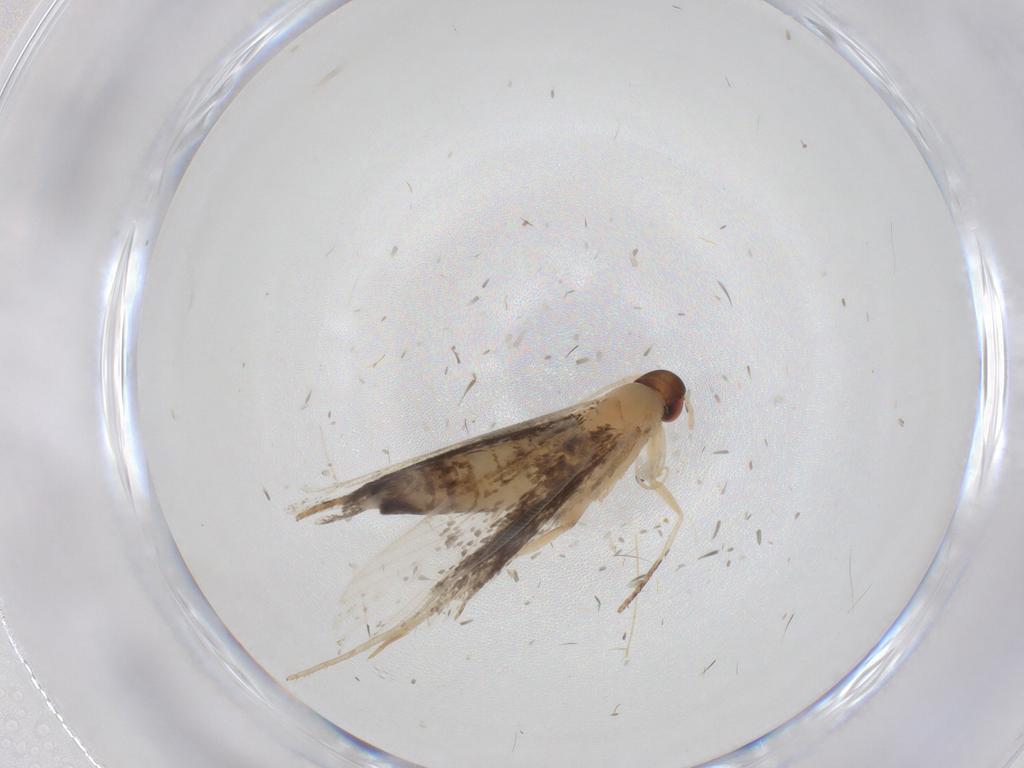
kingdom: Animalia
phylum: Arthropoda
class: Insecta
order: Lepidoptera
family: Gelechiidae
